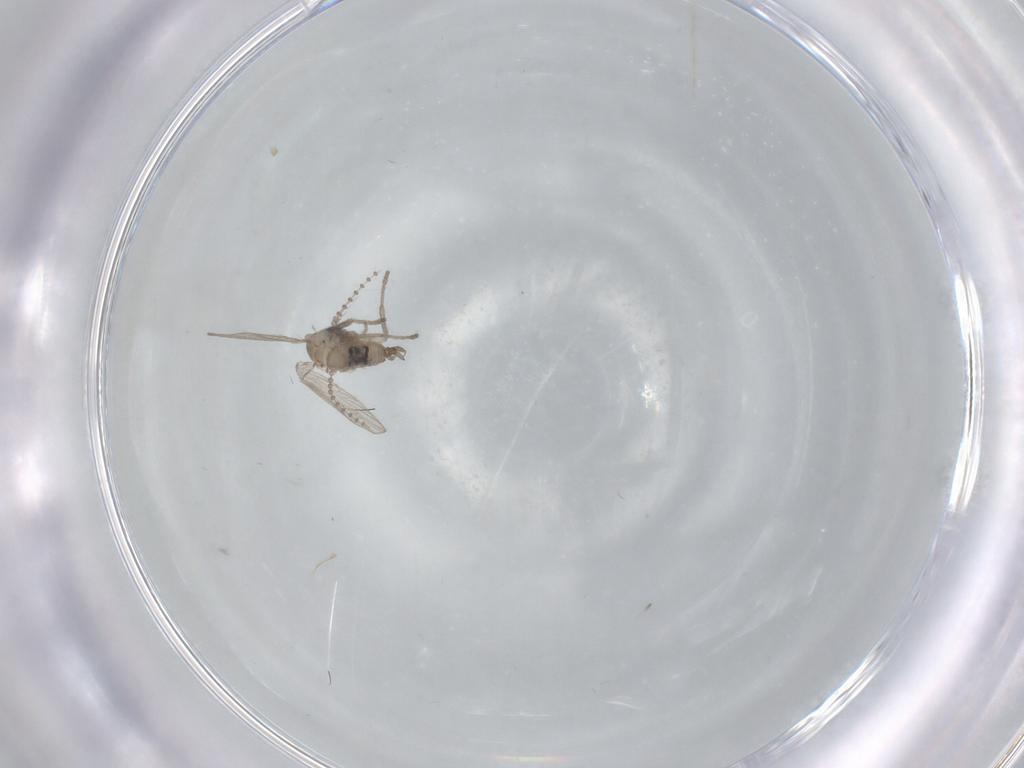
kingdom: Animalia
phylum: Arthropoda
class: Insecta
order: Diptera
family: Psychodidae
